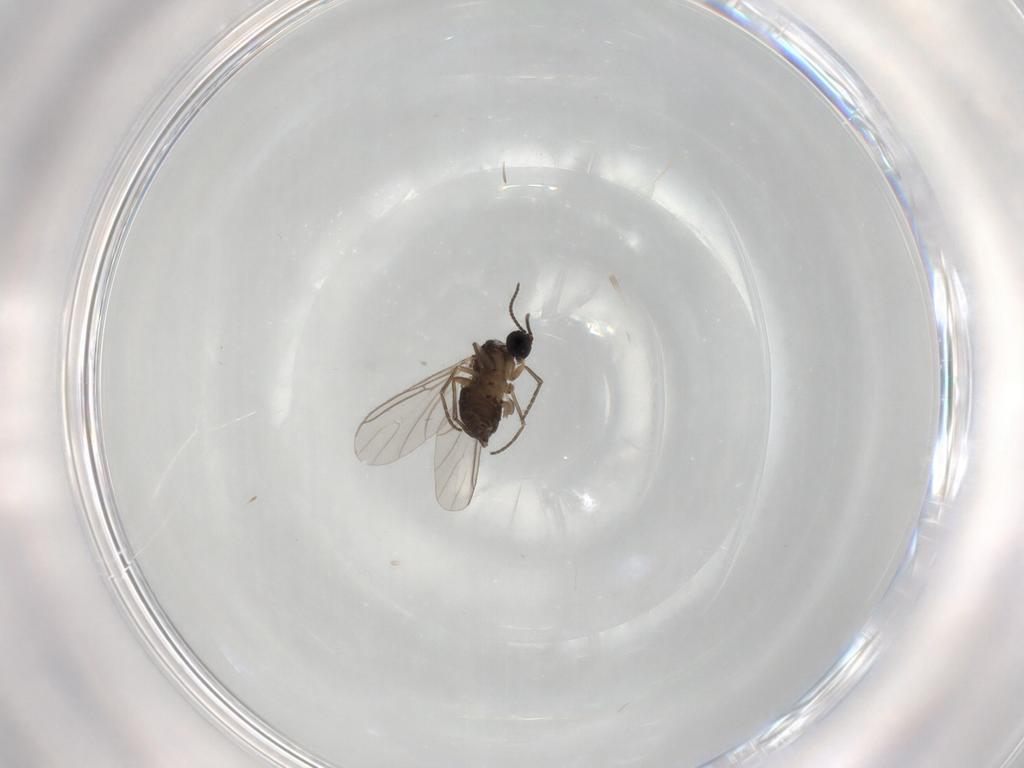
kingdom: Animalia
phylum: Arthropoda
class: Insecta
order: Diptera
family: Sciaridae
